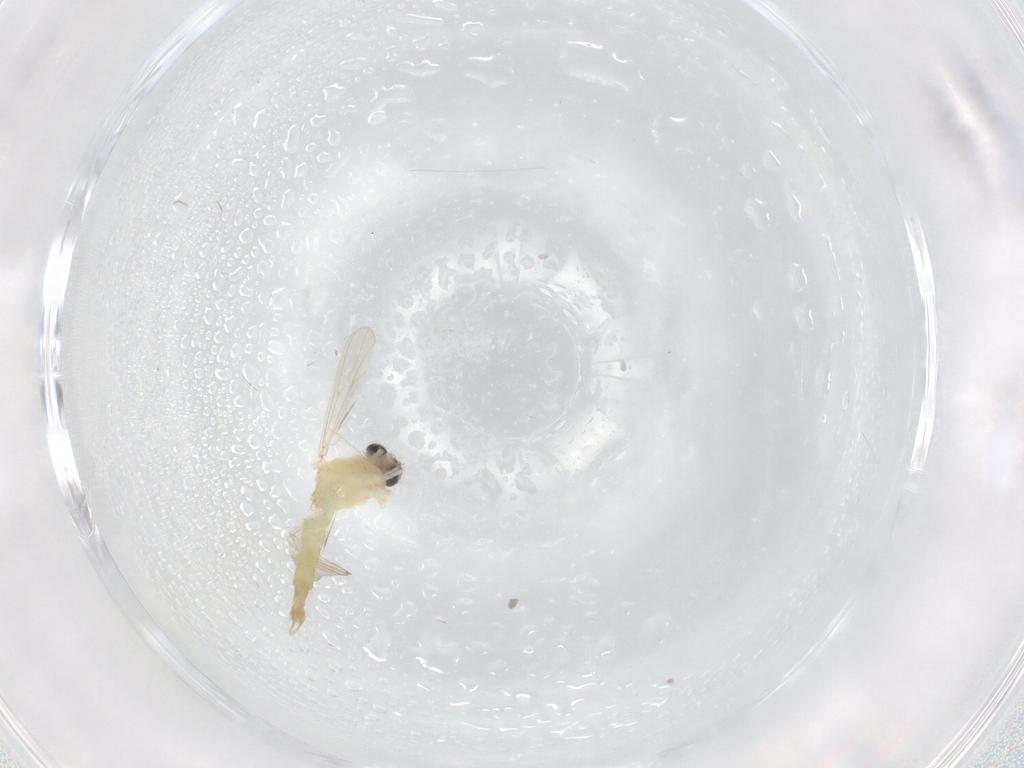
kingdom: Animalia
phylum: Arthropoda
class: Insecta
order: Diptera
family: Chironomidae
